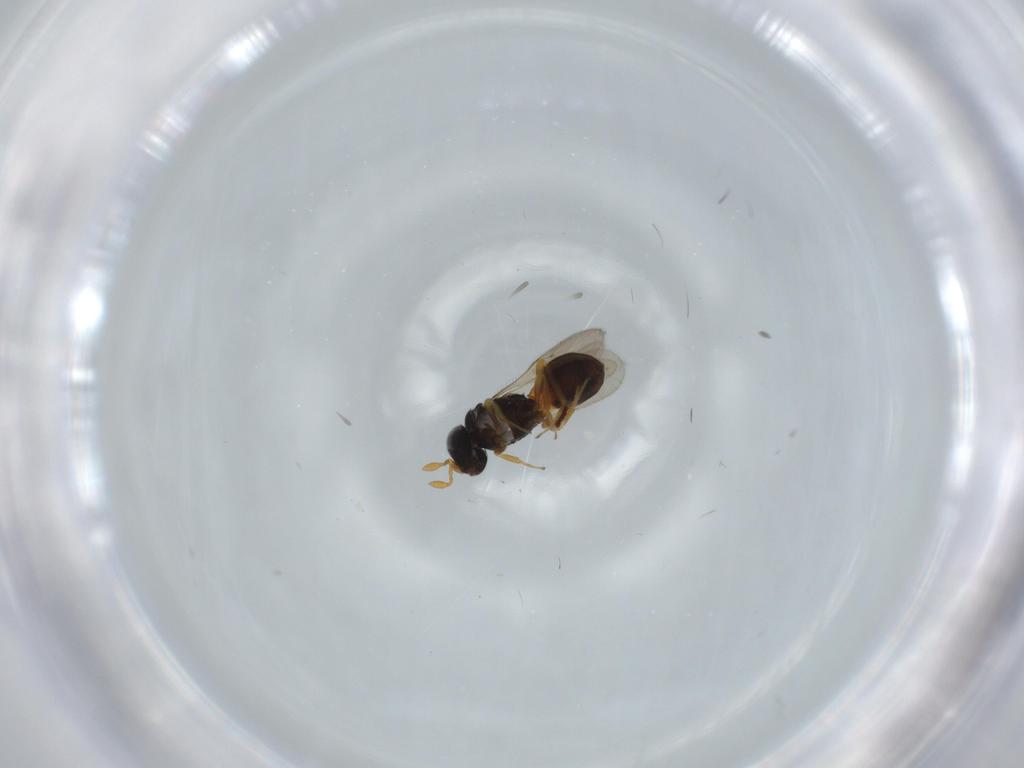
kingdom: Animalia
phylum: Arthropoda
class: Insecta
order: Hymenoptera
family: Scelionidae
